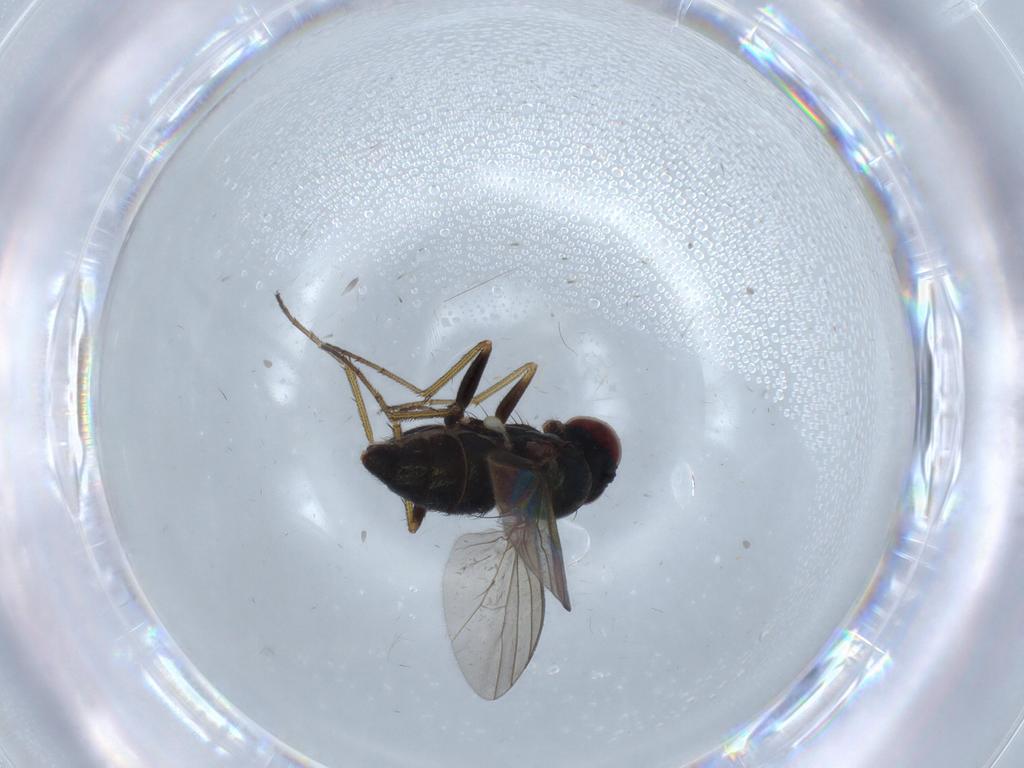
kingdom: Animalia
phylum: Arthropoda
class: Insecta
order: Diptera
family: Dolichopodidae
